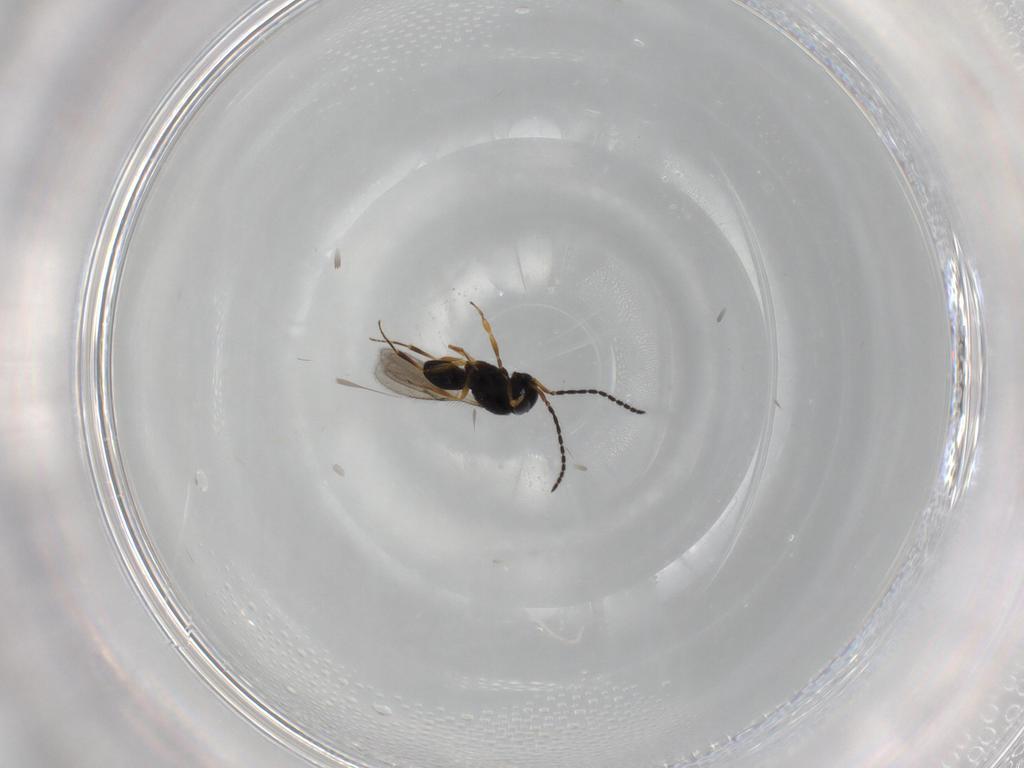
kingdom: Animalia
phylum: Arthropoda
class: Insecta
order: Hymenoptera
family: Scelionidae
